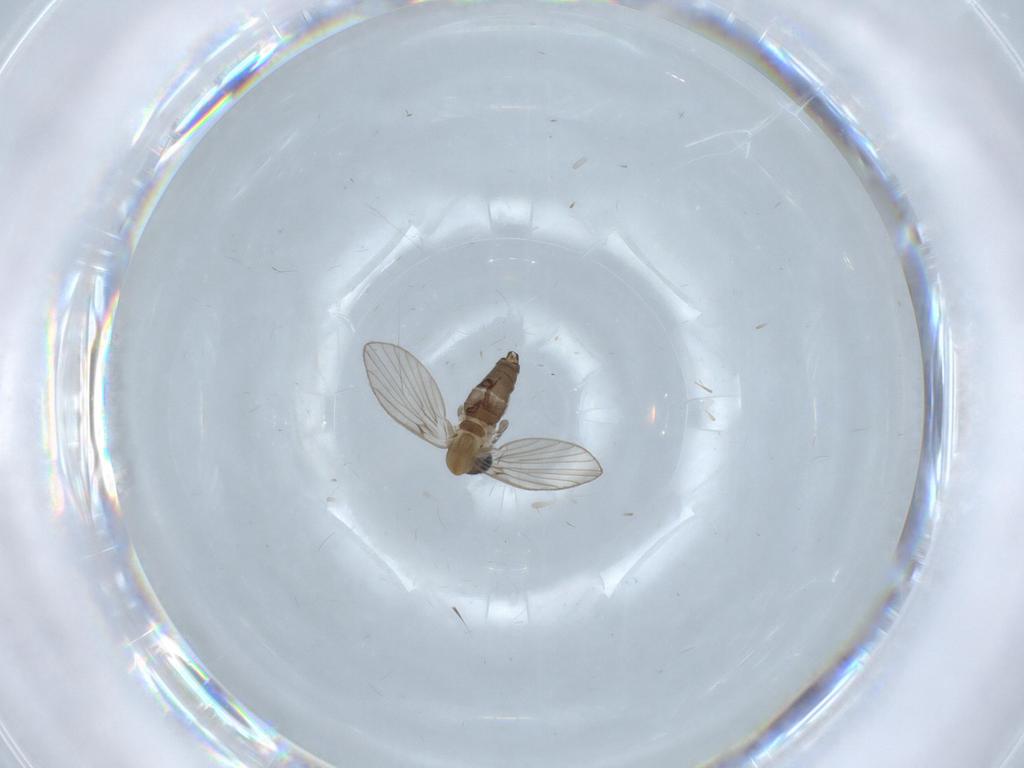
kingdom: Animalia
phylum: Arthropoda
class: Insecta
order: Diptera
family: Psychodidae
